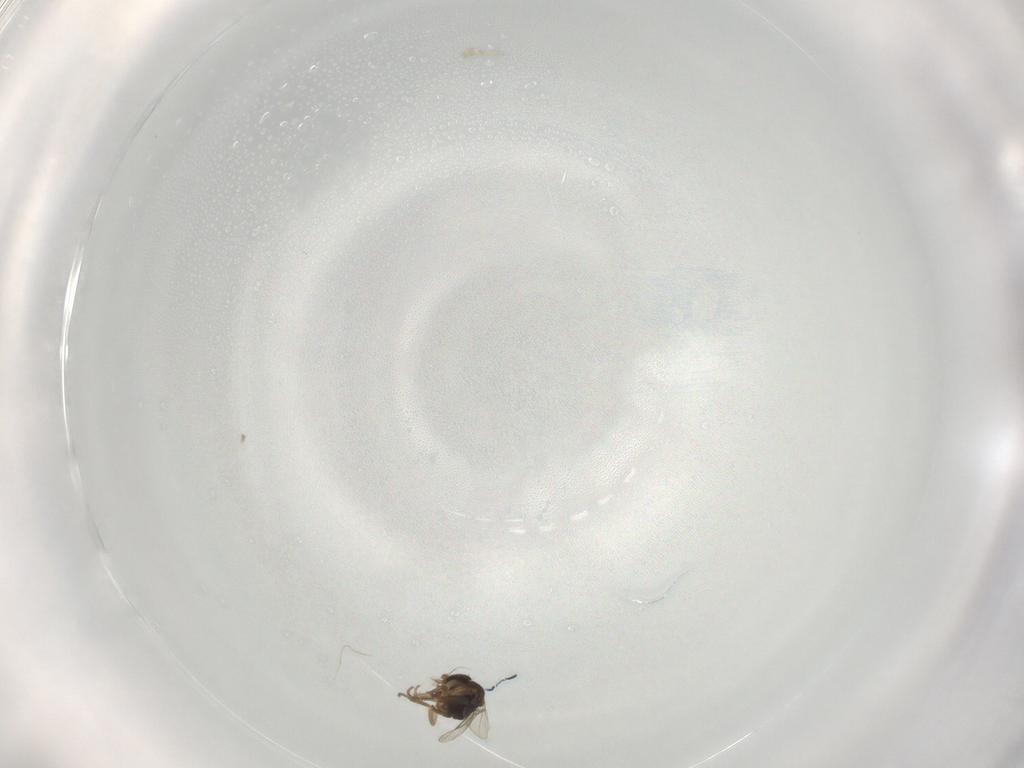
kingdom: Animalia
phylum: Arthropoda
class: Insecta
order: Diptera
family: Phoridae
